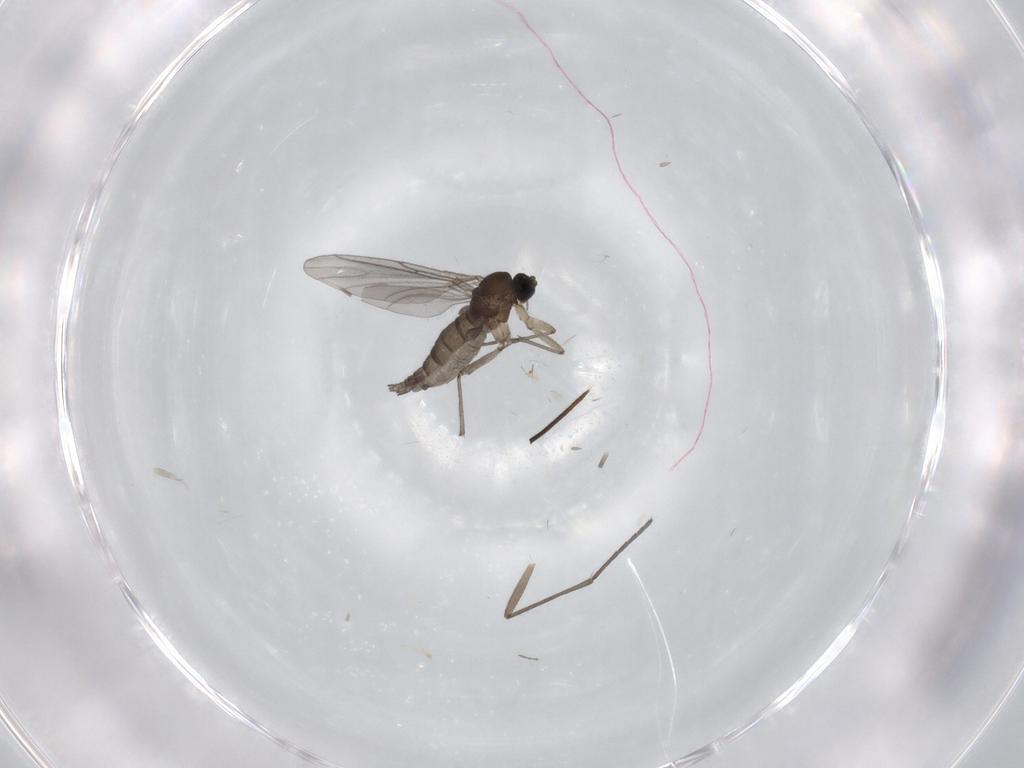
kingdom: Animalia
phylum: Arthropoda
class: Insecta
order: Diptera
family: Sciaridae
